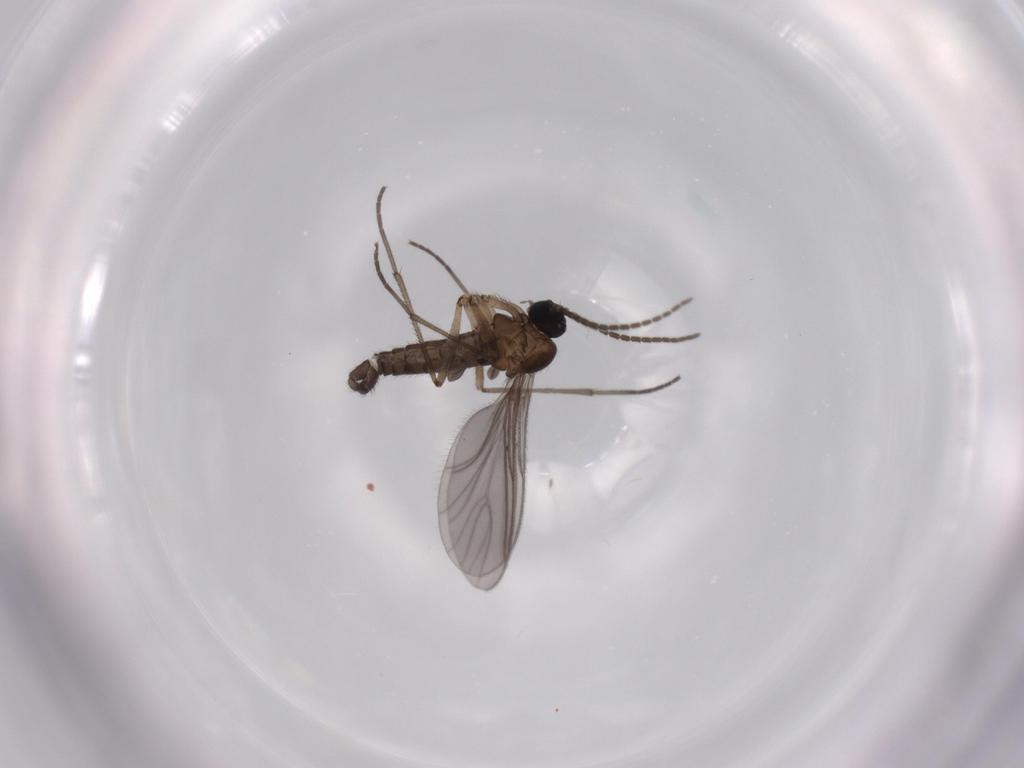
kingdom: Animalia
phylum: Arthropoda
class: Insecta
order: Diptera
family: Sciaridae
